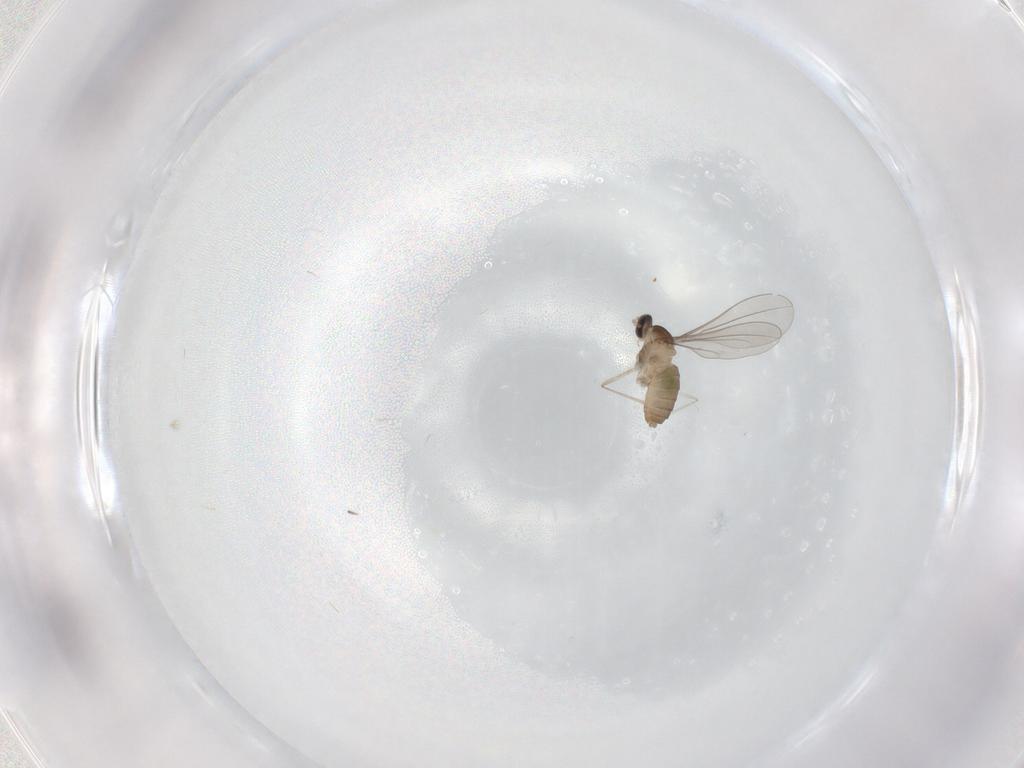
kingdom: Animalia
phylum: Arthropoda
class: Insecta
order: Diptera
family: Cecidomyiidae
